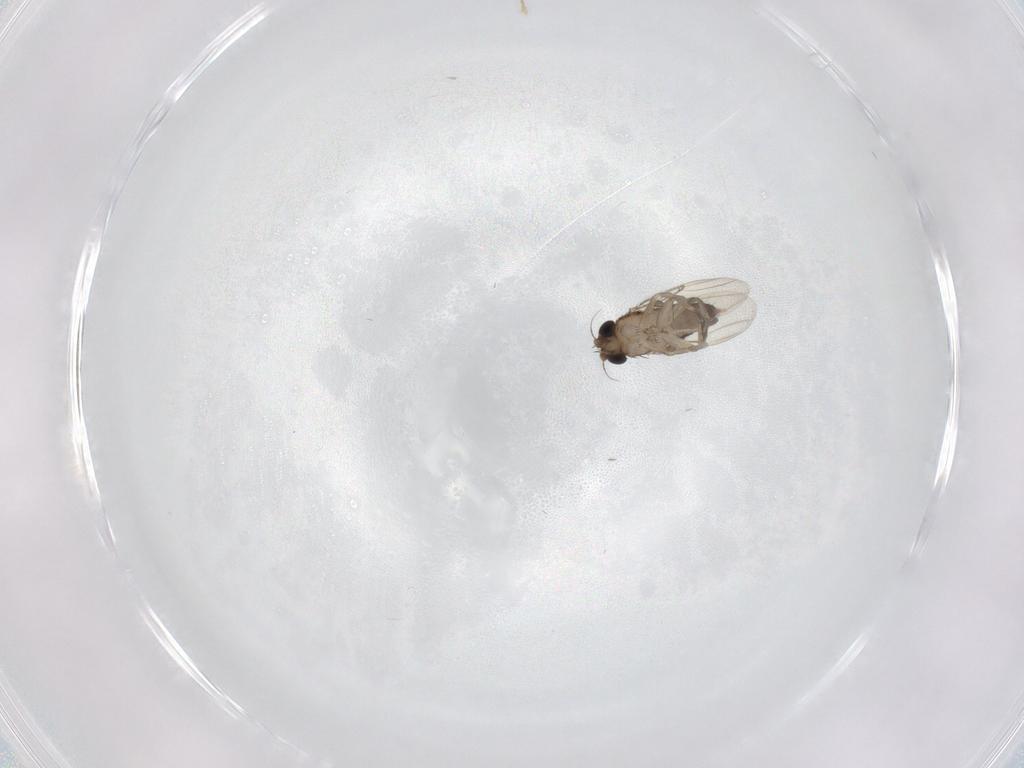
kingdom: Animalia
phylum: Arthropoda
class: Insecta
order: Diptera
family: Phoridae
